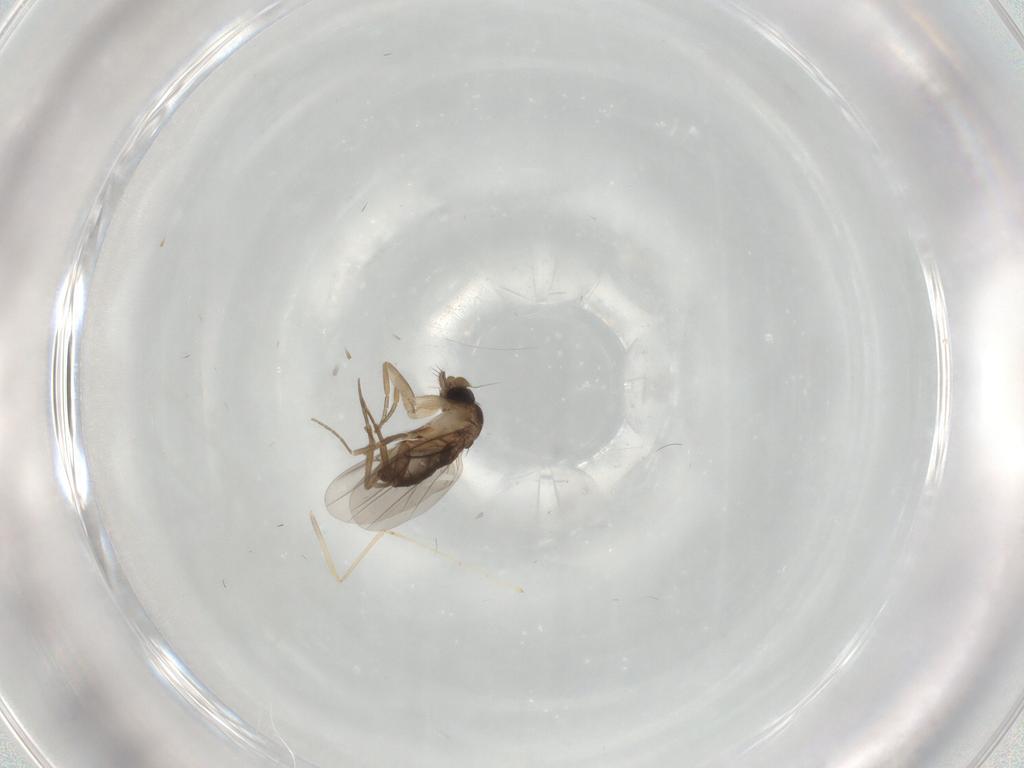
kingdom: Animalia
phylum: Arthropoda
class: Insecta
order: Diptera
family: Cecidomyiidae
